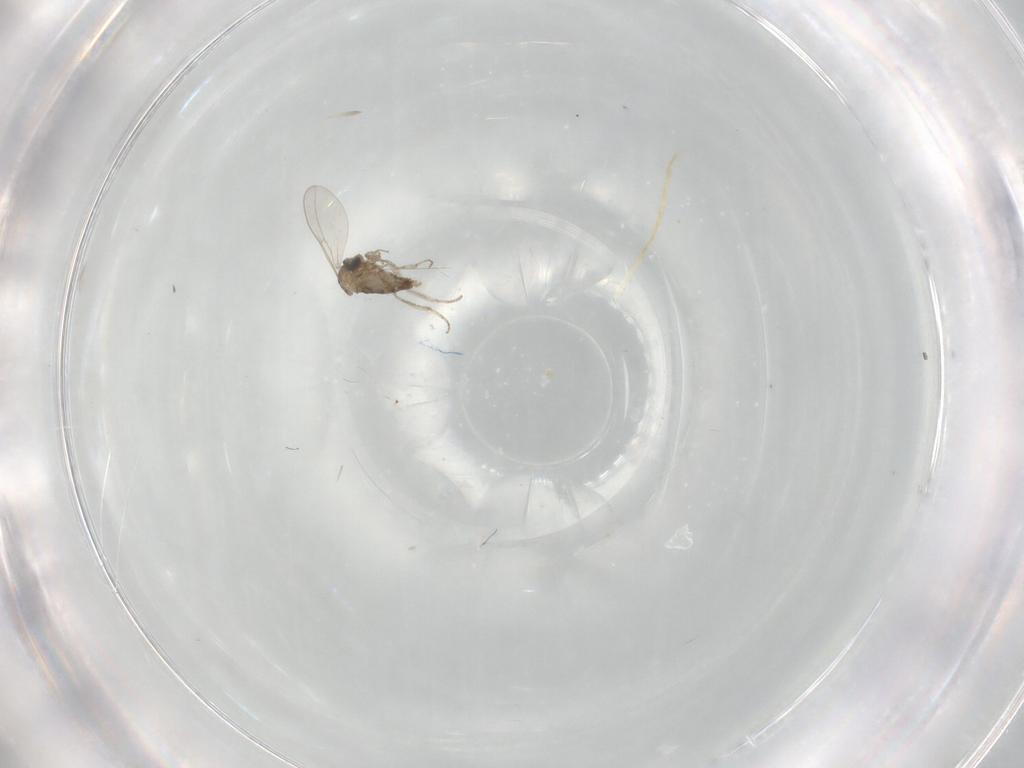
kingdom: Animalia
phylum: Arthropoda
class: Insecta
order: Diptera
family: Cecidomyiidae
